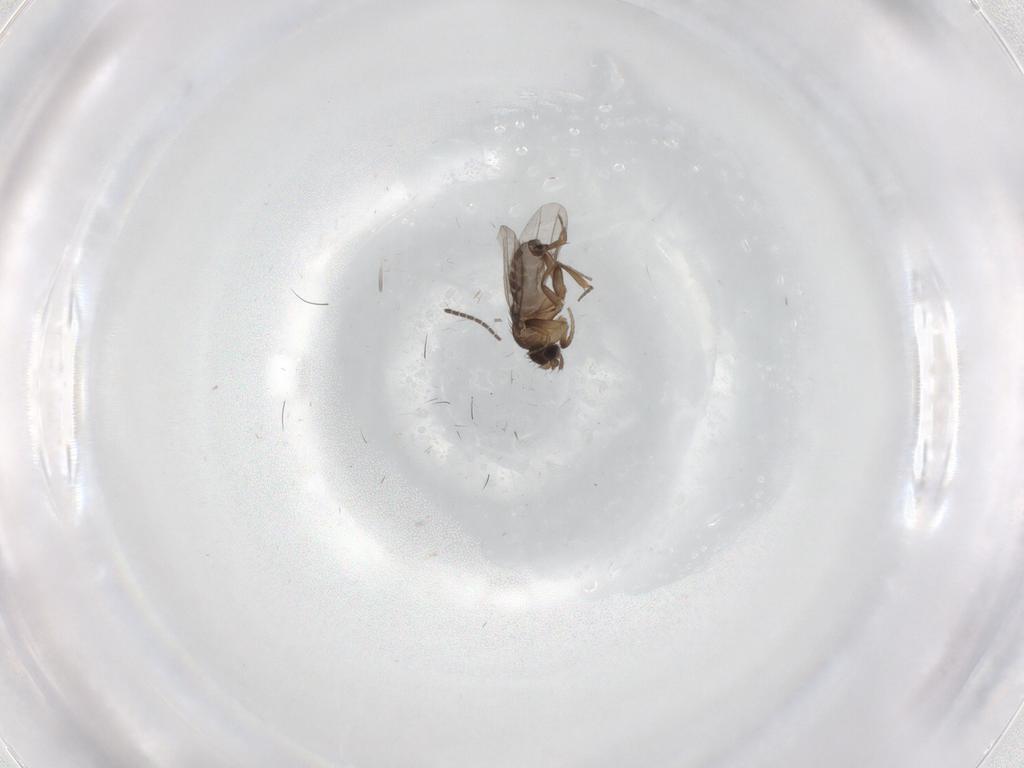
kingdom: Animalia
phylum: Arthropoda
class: Insecta
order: Diptera
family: Sciaridae
